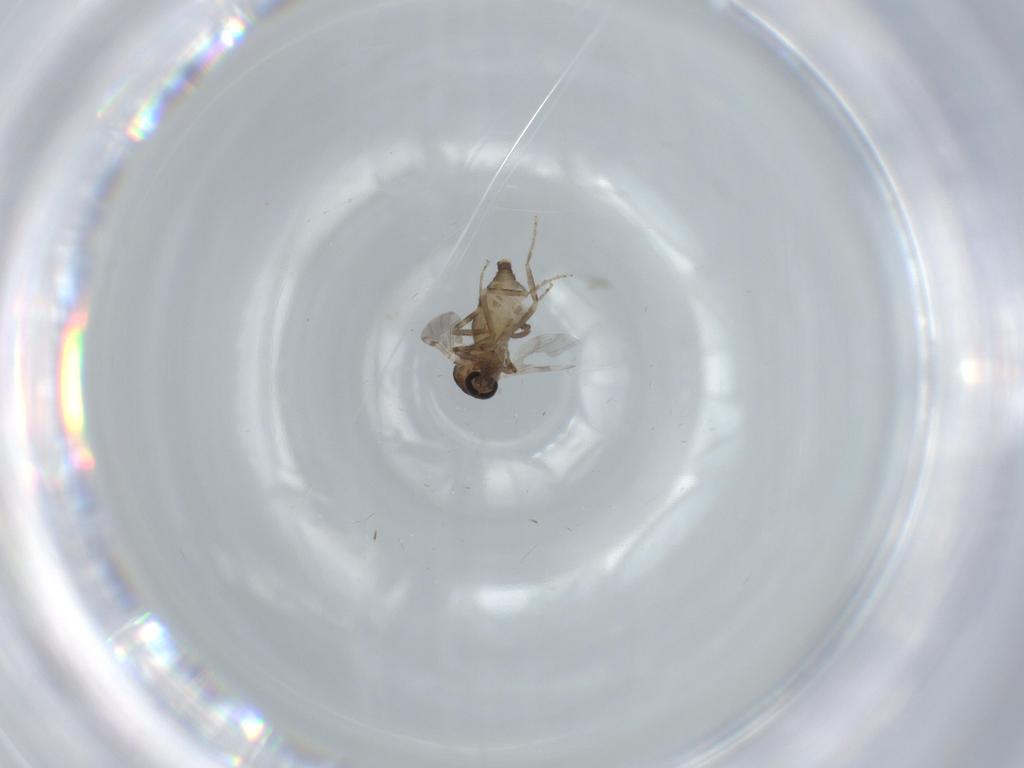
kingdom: Animalia
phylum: Arthropoda
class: Insecta
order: Diptera
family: Ceratopogonidae
